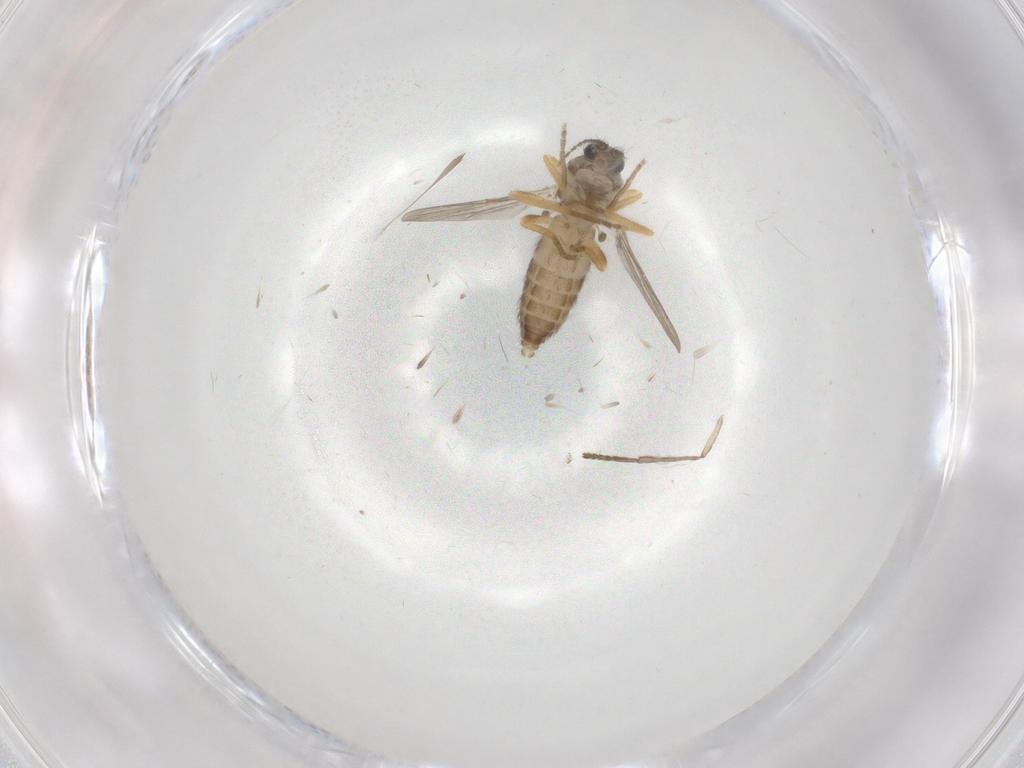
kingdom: Animalia
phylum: Arthropoda
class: Insecta
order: Diptera
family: Ceratopogonidae
